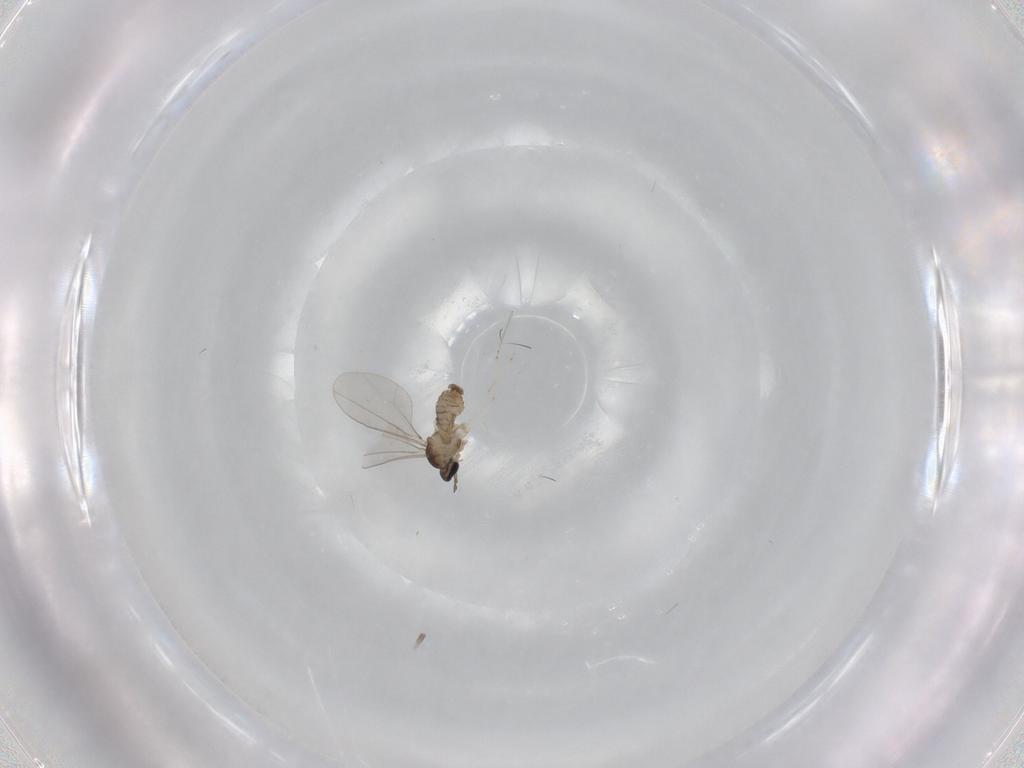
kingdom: Animalia
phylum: Arthropoda
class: Insecta
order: Diptera
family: Cecidomyiidae
